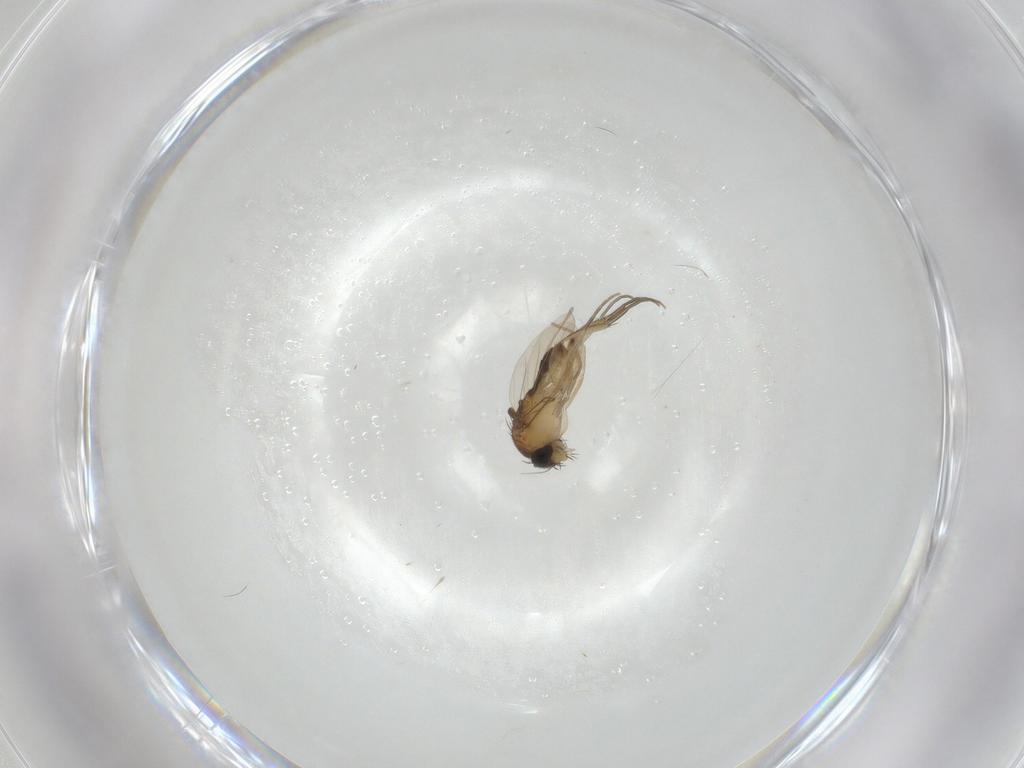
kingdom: Animalia
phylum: Arthropoda
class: Insecta
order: Diptera
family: Phoridae
